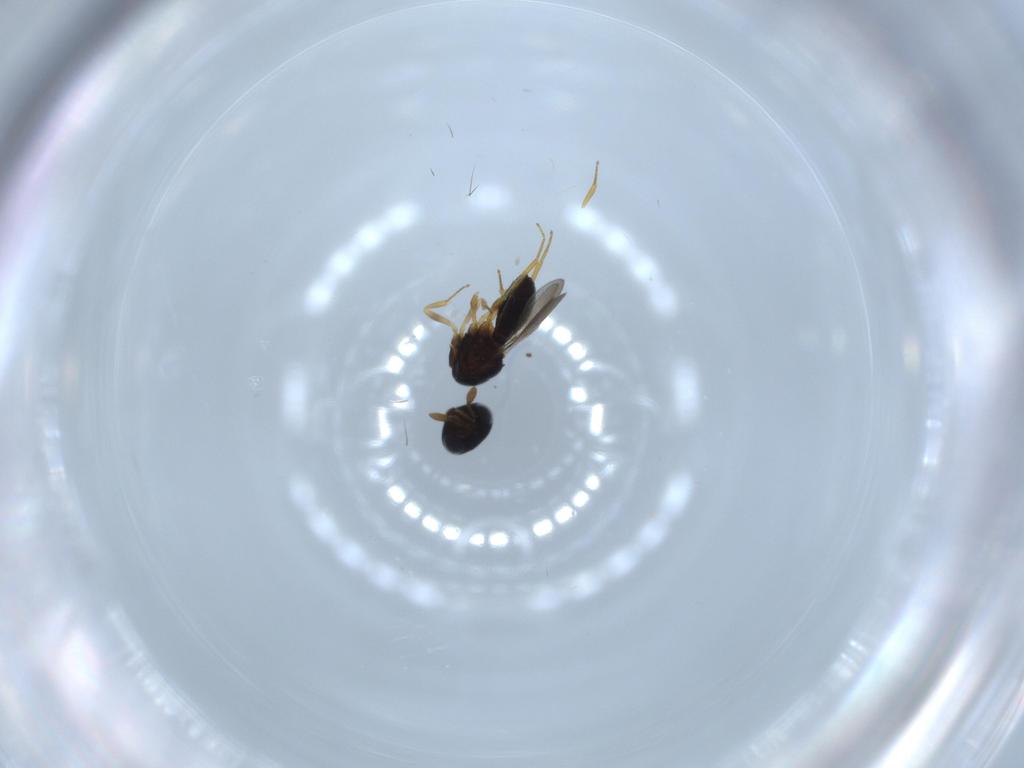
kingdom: Animalia
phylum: Arthropoda
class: Insecta
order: Hymenoptera
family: Scelionidae
